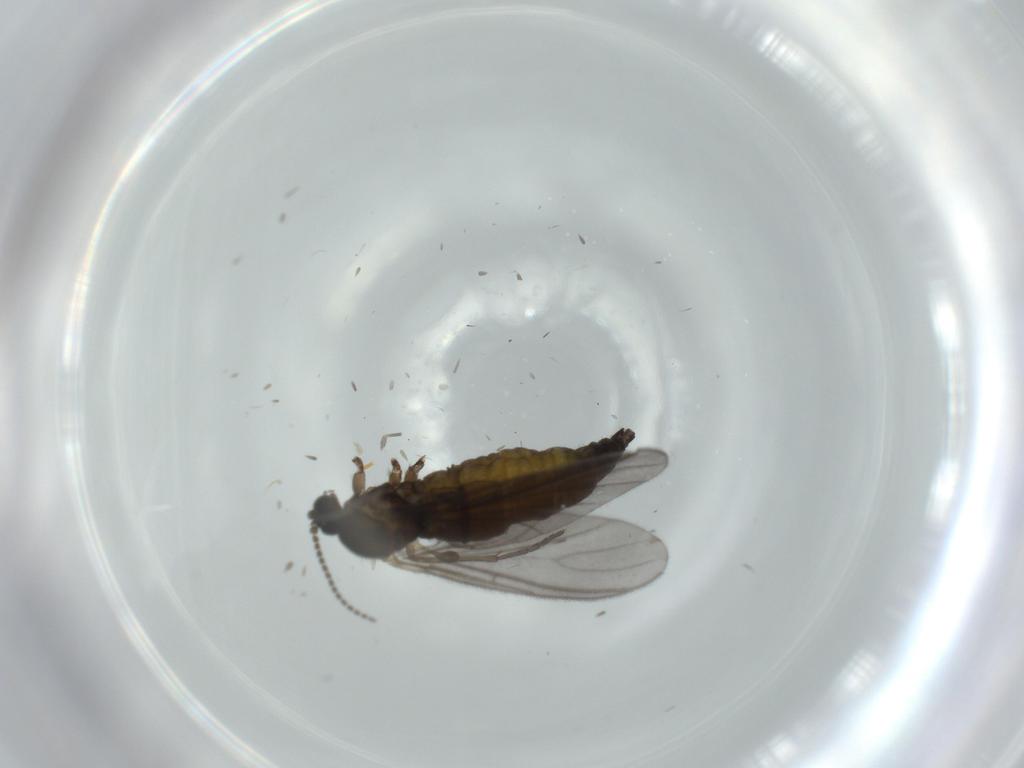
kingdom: Animalia
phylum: Arthropoda
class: Insecta
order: Diptera
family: Sciaridae
